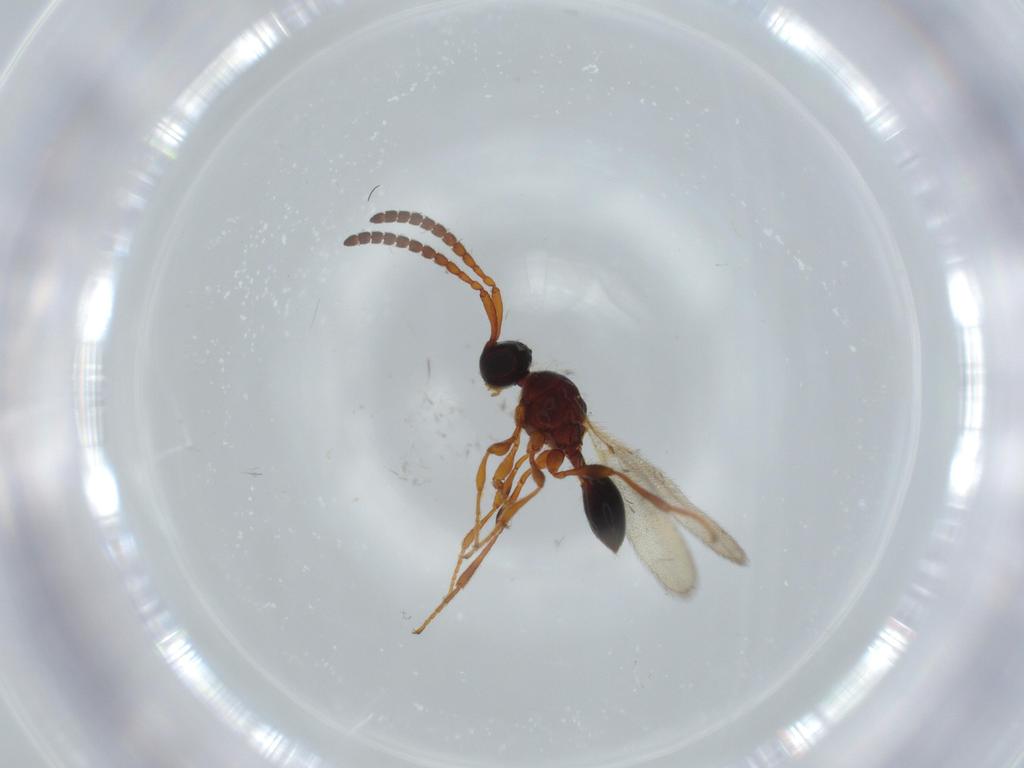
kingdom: Animalia
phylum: Arthropoda
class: Insecta
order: Hymenoptera
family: Diapriidae
